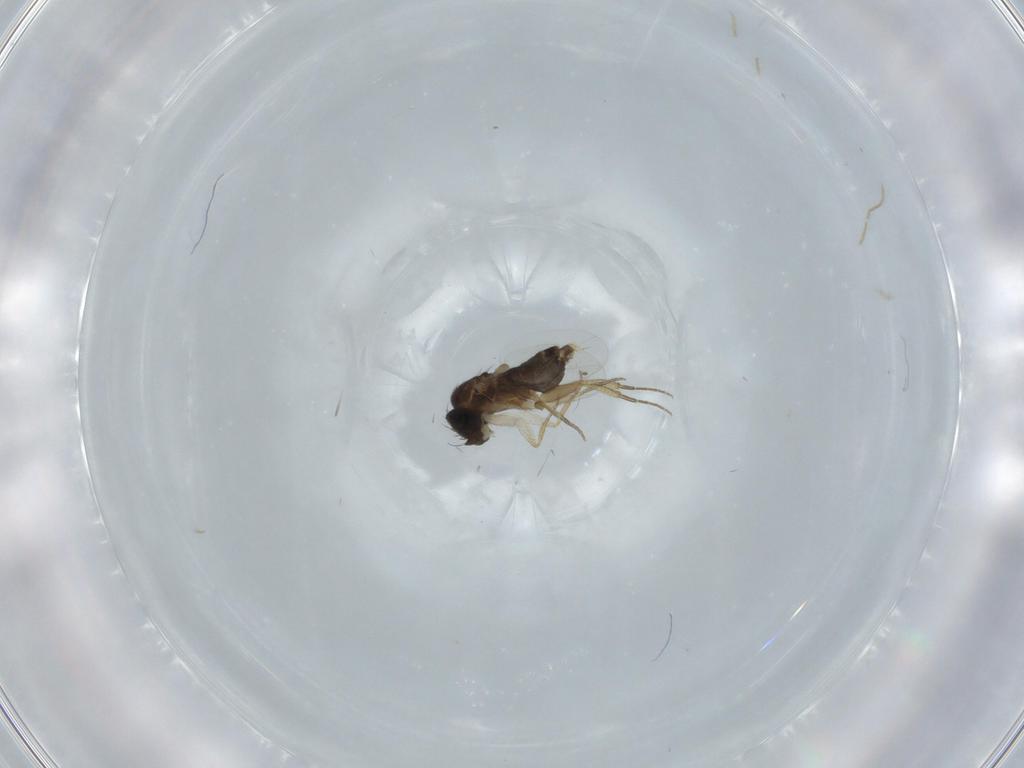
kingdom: Animalia
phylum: Arthropoda
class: Insecta
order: Diptera
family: Phoridae
